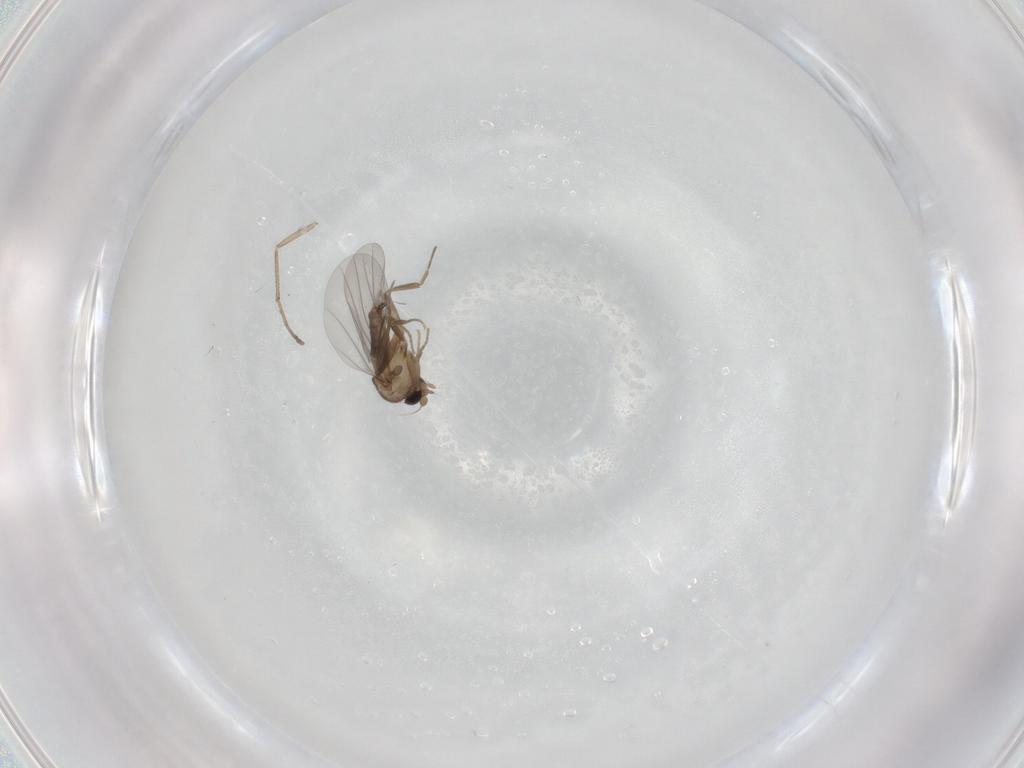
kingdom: Animalia
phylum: Arthropoda
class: Insecta
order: Diptera
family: Phoridae
